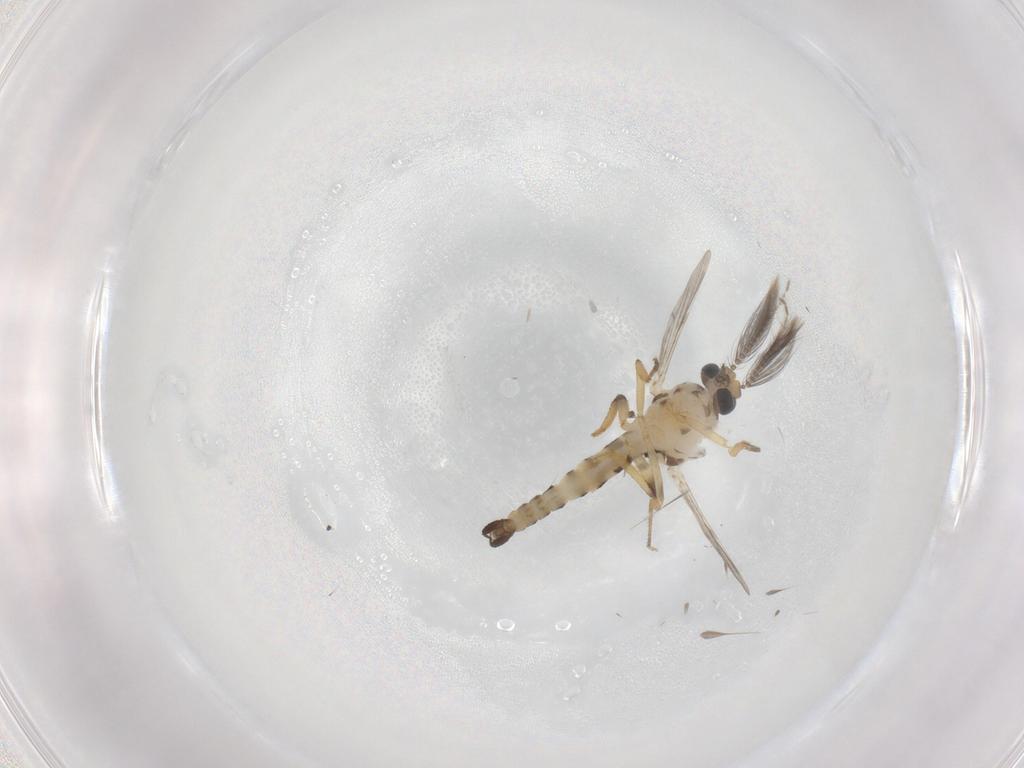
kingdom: Animalia
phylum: Arthropoda
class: Insecta
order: Diptera
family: Ceratopogonidae
